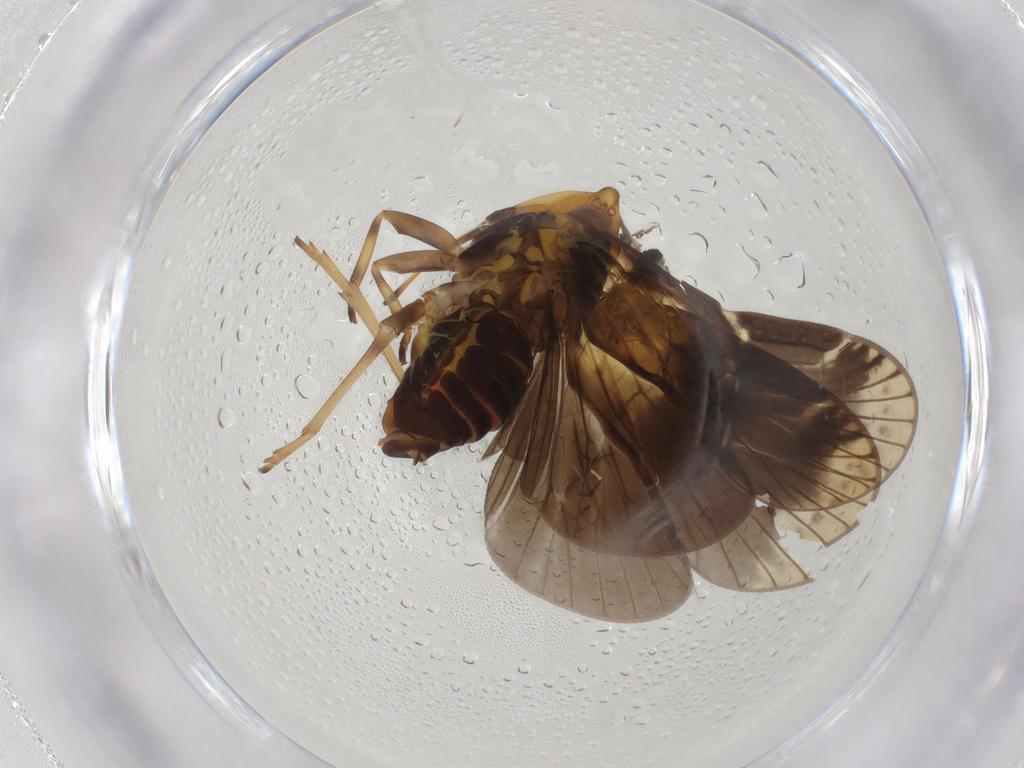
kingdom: Animalia
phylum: Arthropoda
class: Insecta
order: Hemiptera
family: Cixiidae
